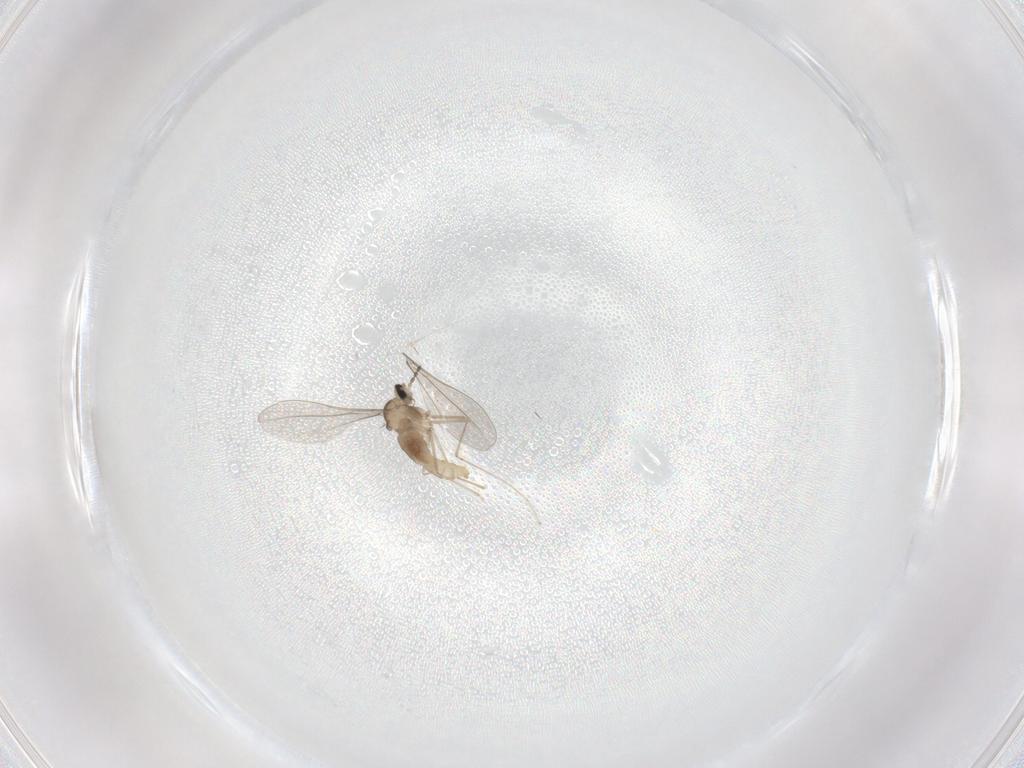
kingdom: Animalia
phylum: Arthropoda
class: Insecta
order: Diptera
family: Cecidomyiidae
